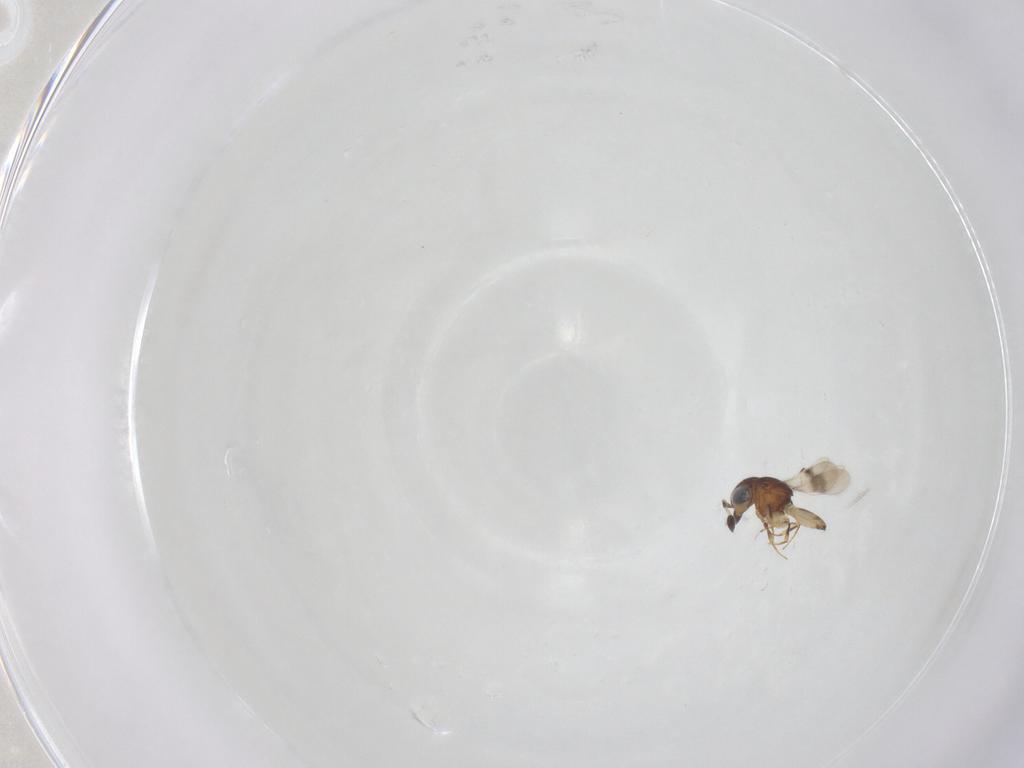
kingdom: Animalia
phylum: Arthropoda
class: Arachnida
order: Araneae
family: Pholcidae
